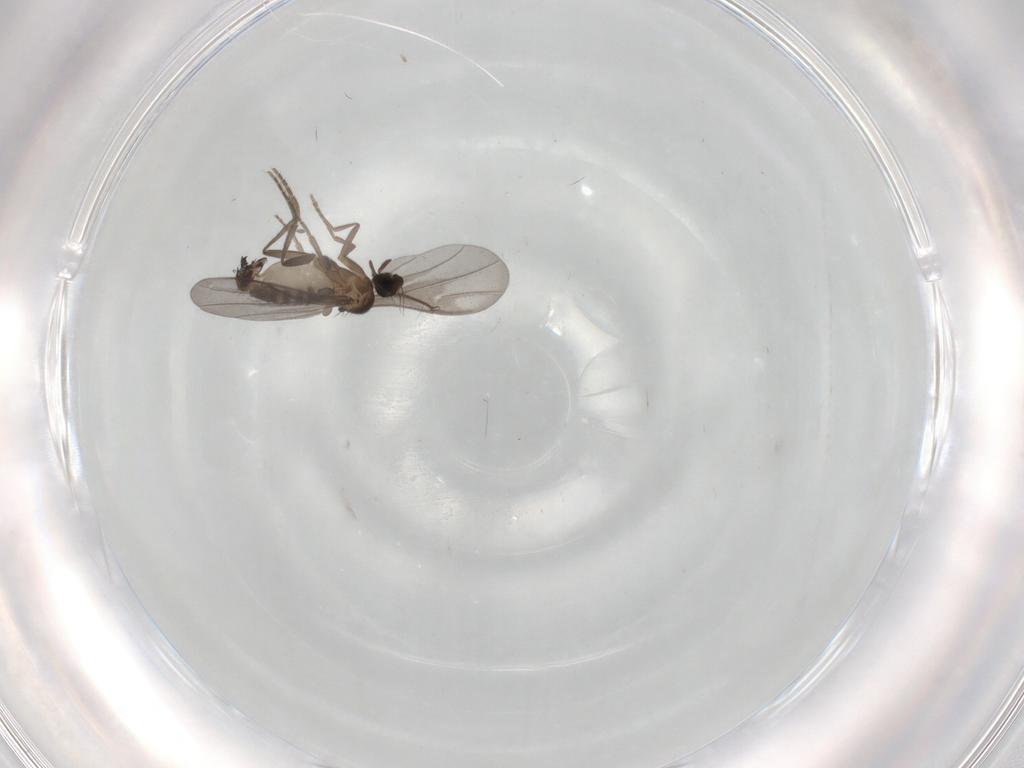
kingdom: Animalia
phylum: Arthropoda
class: Insecta
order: Diptera
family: Phoridae
